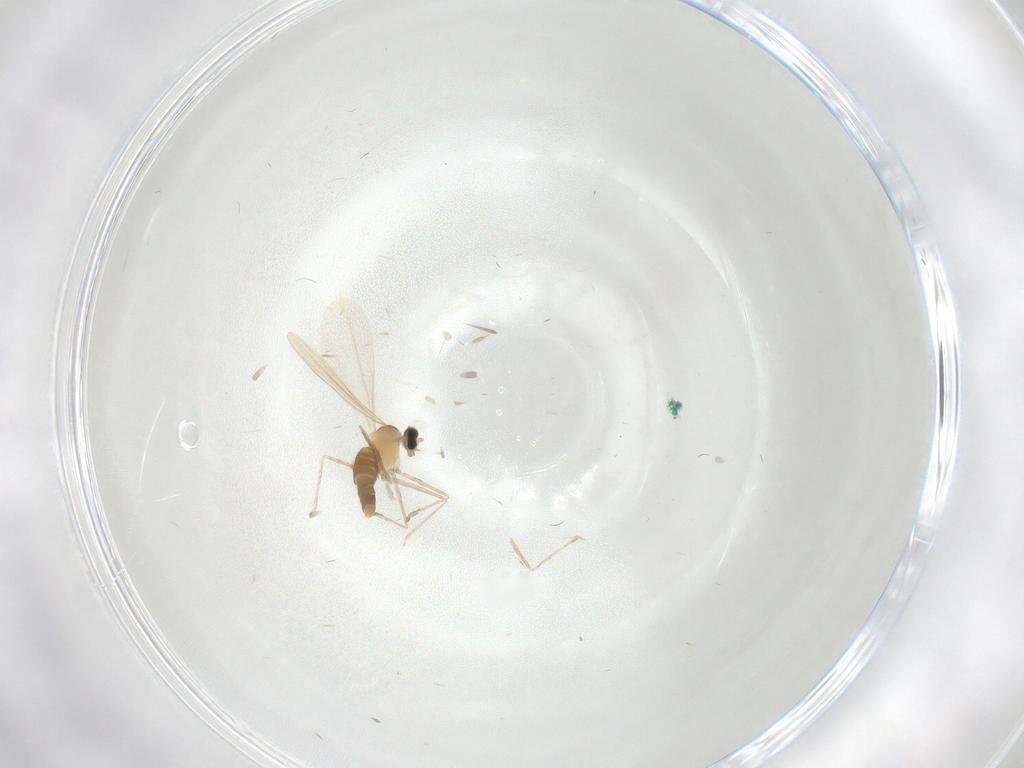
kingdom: Animalia
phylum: Arthropoda
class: Insecta
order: Diptera
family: Cecidomyiidae
